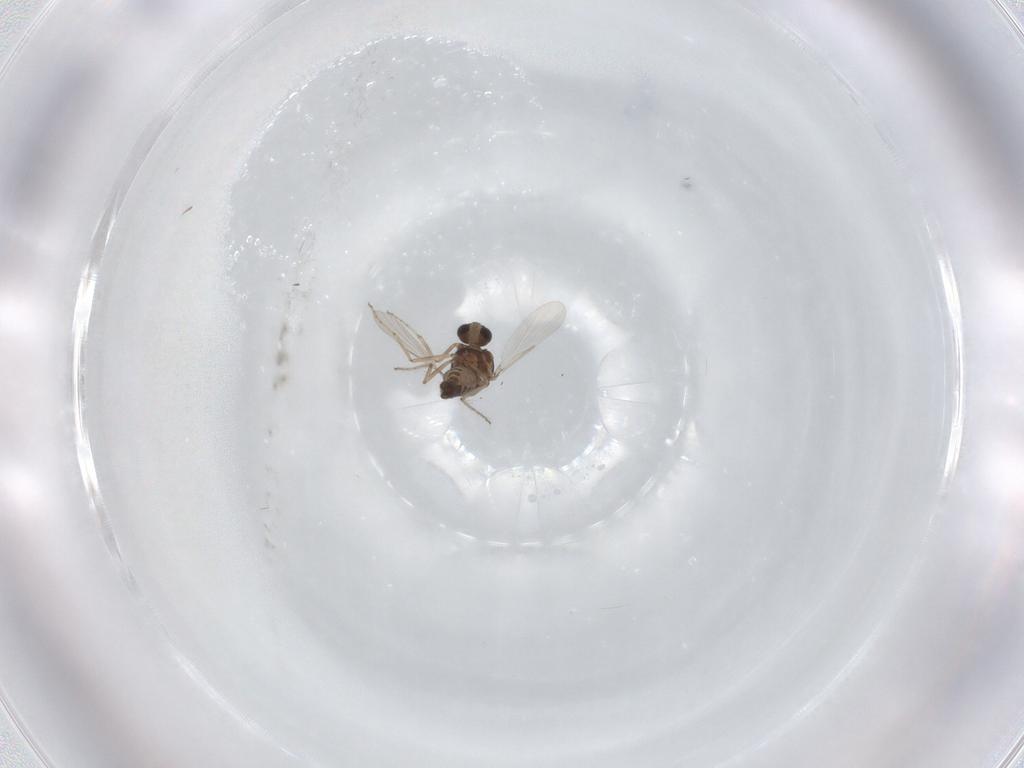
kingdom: Animalia
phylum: Arthropoda
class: Insecta
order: Diptera
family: Ceratopogonidae
